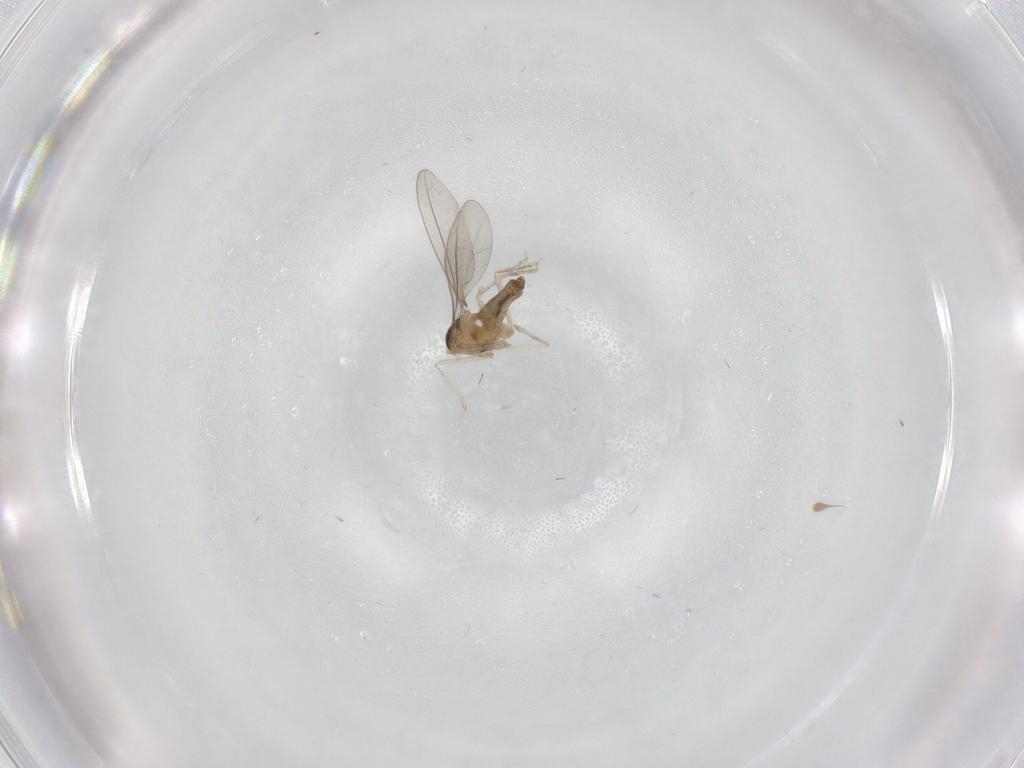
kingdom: Animalia
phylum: Arthropoda
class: Insecta
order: Diptera
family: Cecidomyiidae
